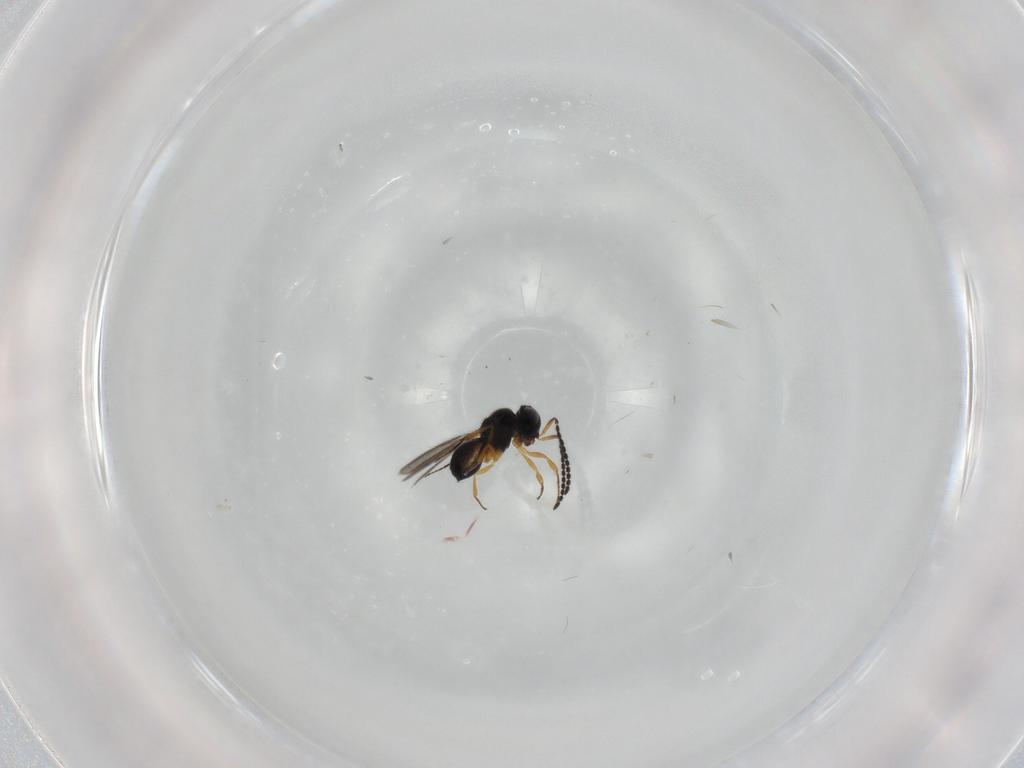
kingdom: Animalia
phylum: Arthropoda
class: Insecta
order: Hymenoptera
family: Scelionidae
